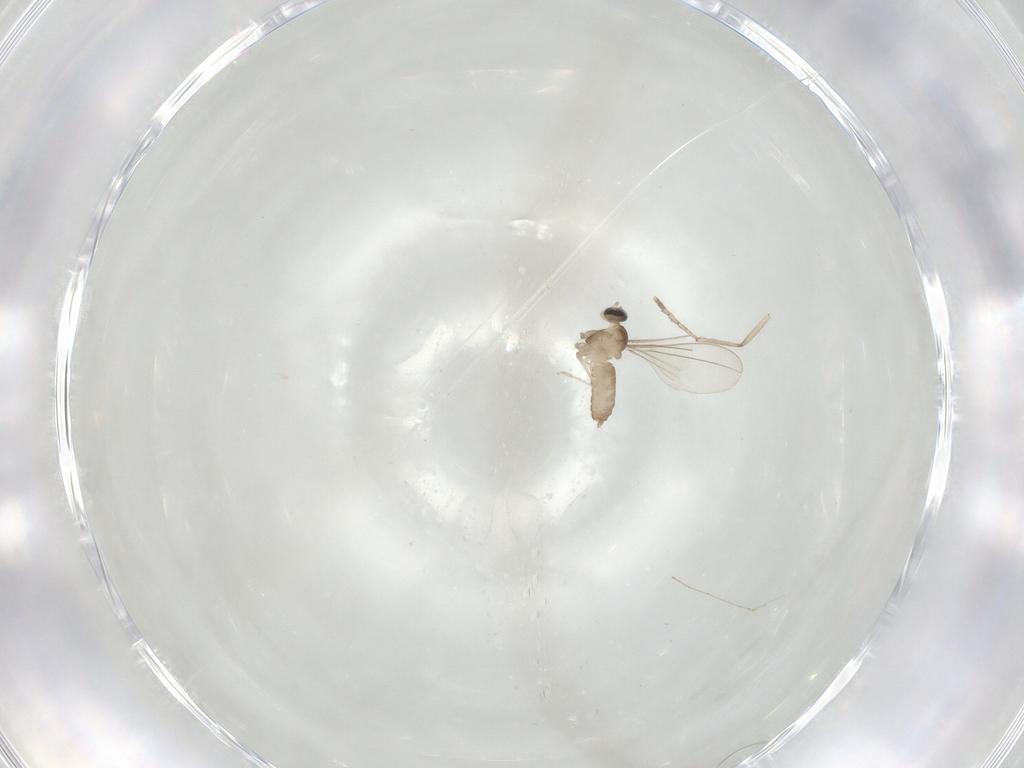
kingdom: Animalia
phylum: Arthropoda
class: Insecta
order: Diptera
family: Cecidomyiidae
